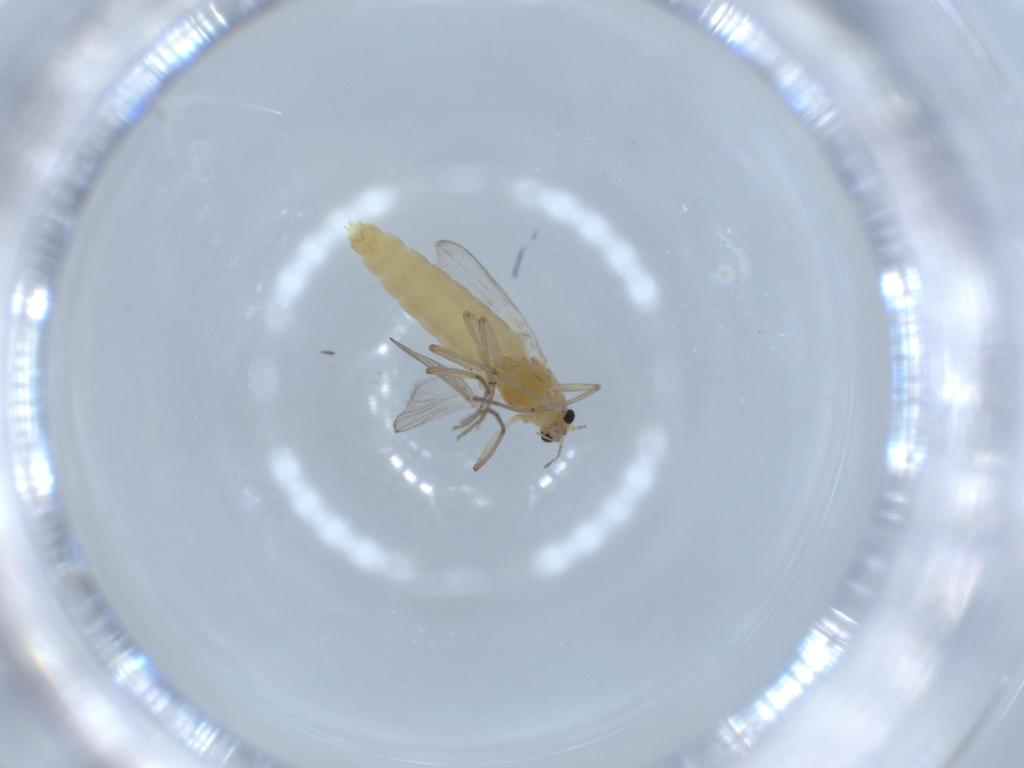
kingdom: Animalia
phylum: Arthropoda
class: Insecta
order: Diptera
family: Chironomidae
